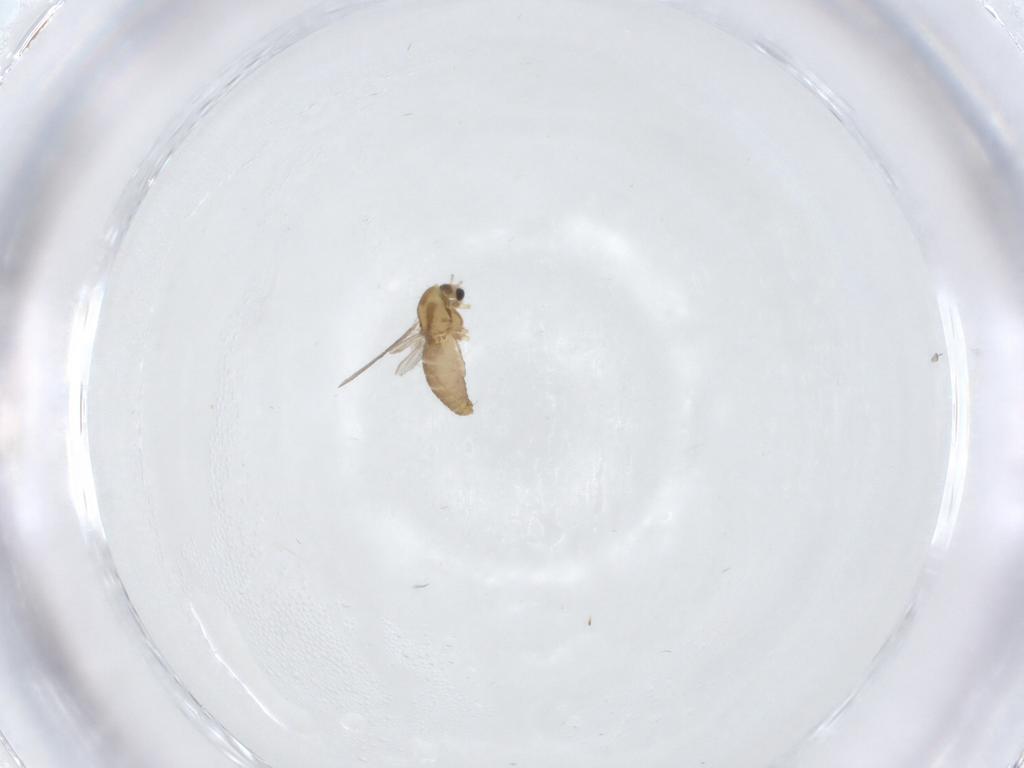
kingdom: Animalia
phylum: Arthropoda
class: Insecta
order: Diptera
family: Chironomidae
